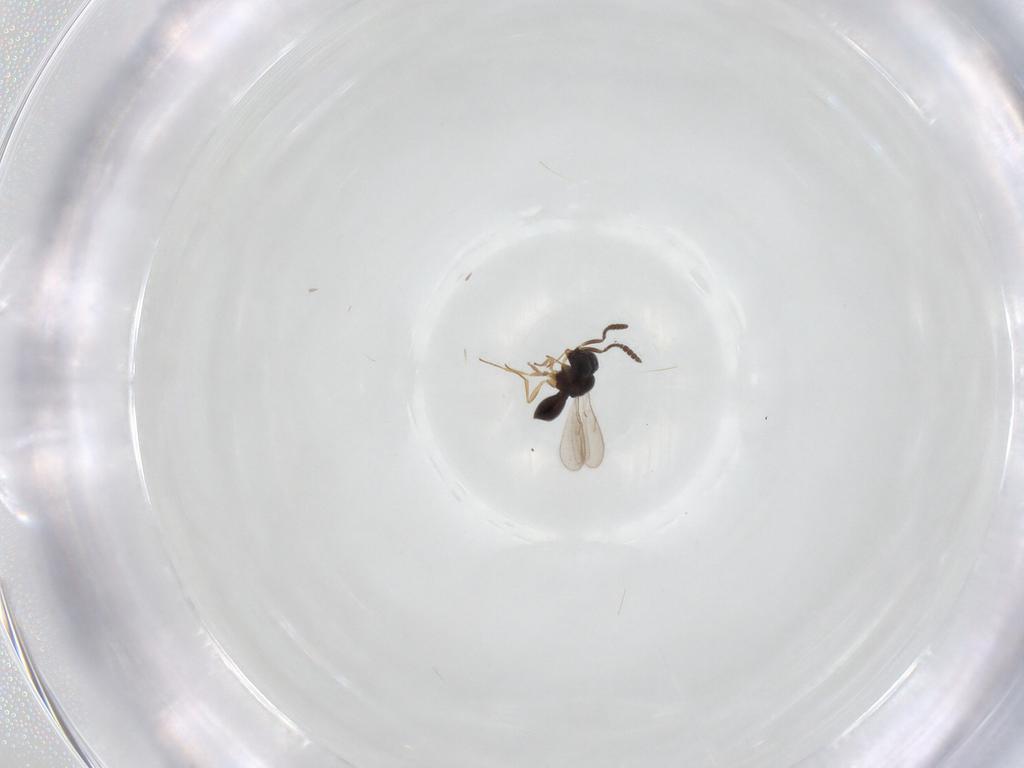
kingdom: Animalia
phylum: Arthropoda
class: Insecta
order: Hymenoptera
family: Scelionidae
